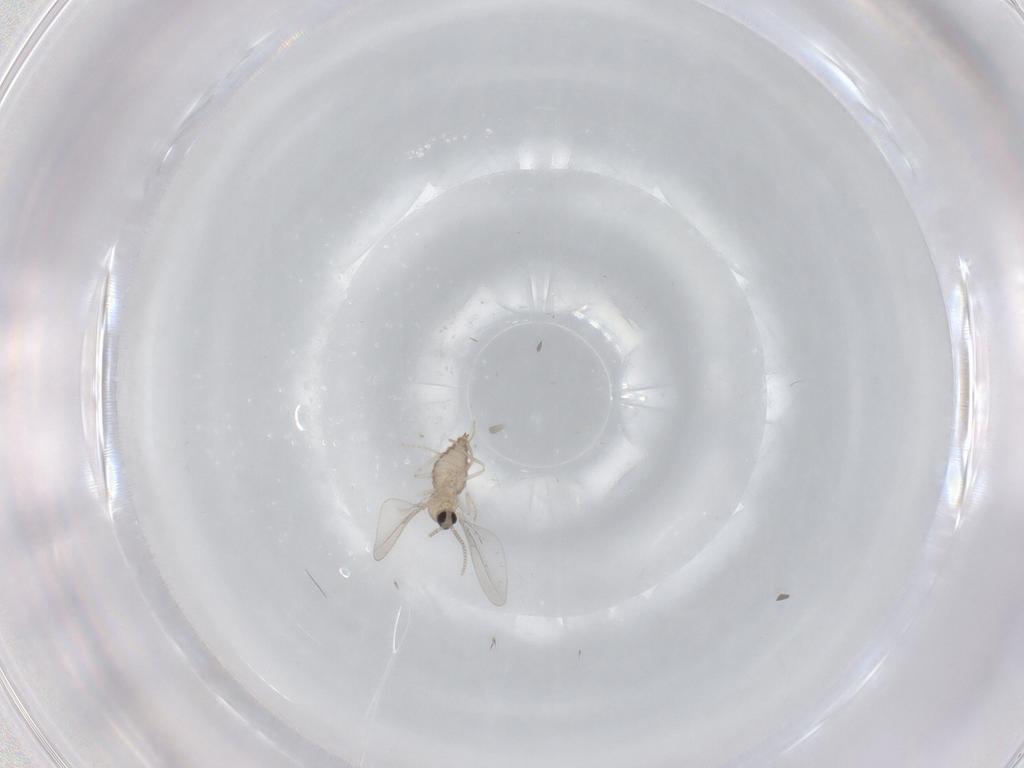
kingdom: Animalia
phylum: Arthropoda
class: Insecta
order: Diptera
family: Cecidomyiidae
